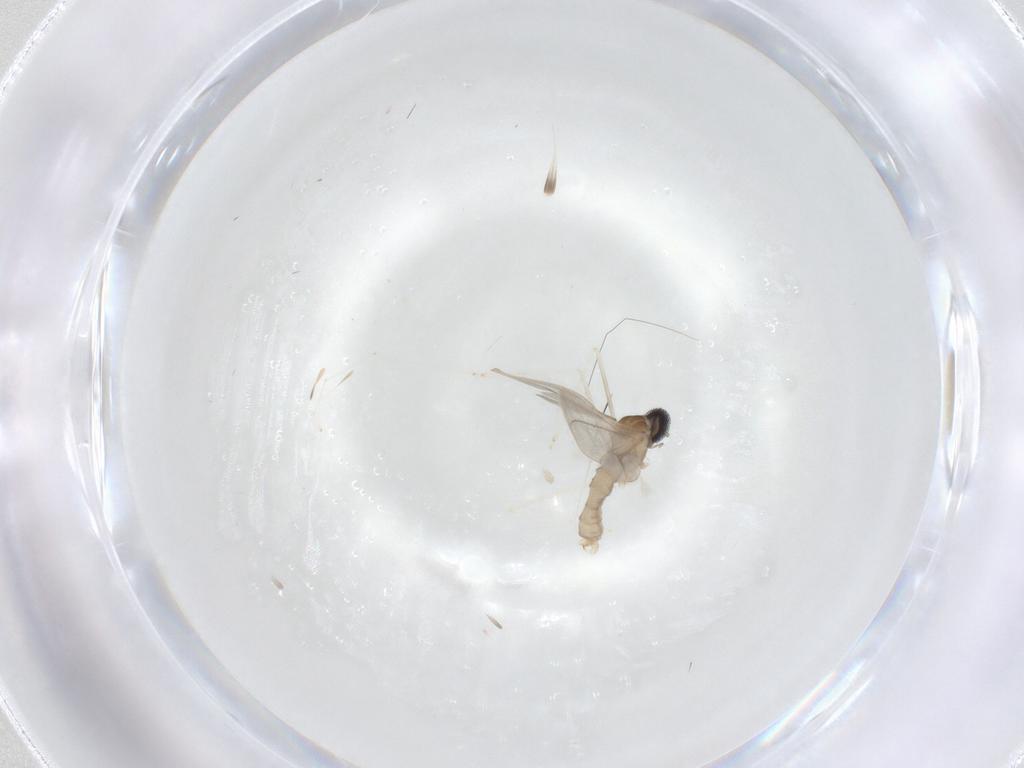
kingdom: Animalia
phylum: Arthropoda
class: Insecta
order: Diptera
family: Cecidomyiidae
